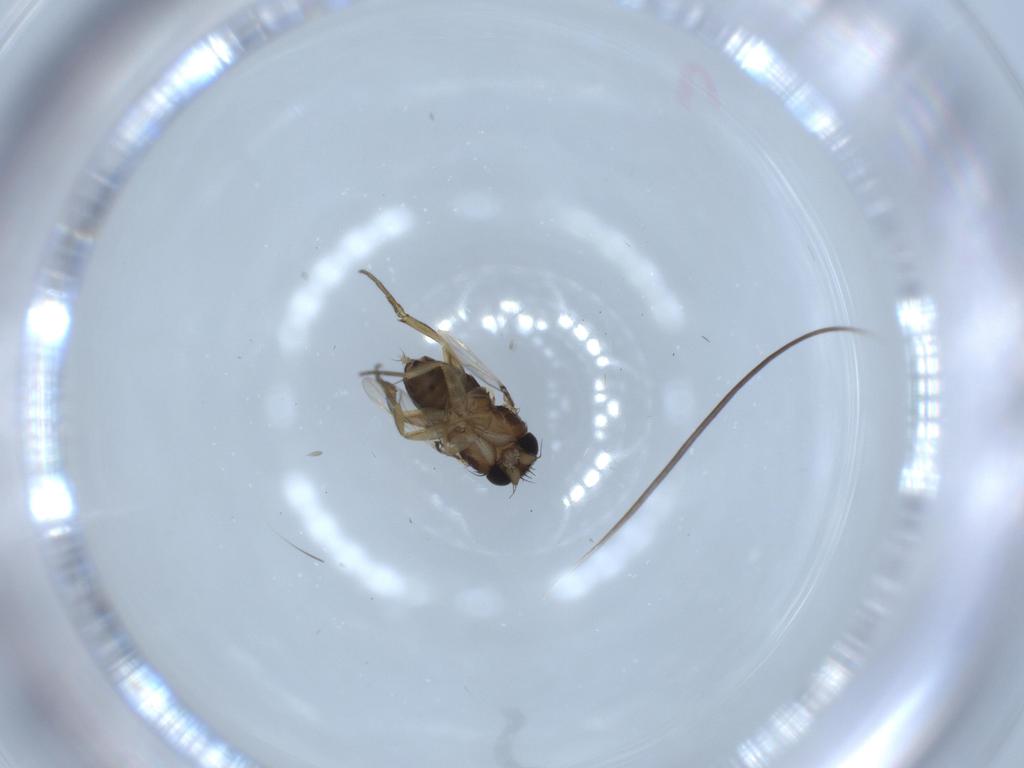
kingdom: Animalia
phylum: Arthropoda
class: Insecta
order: Diptera
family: Phoridae
